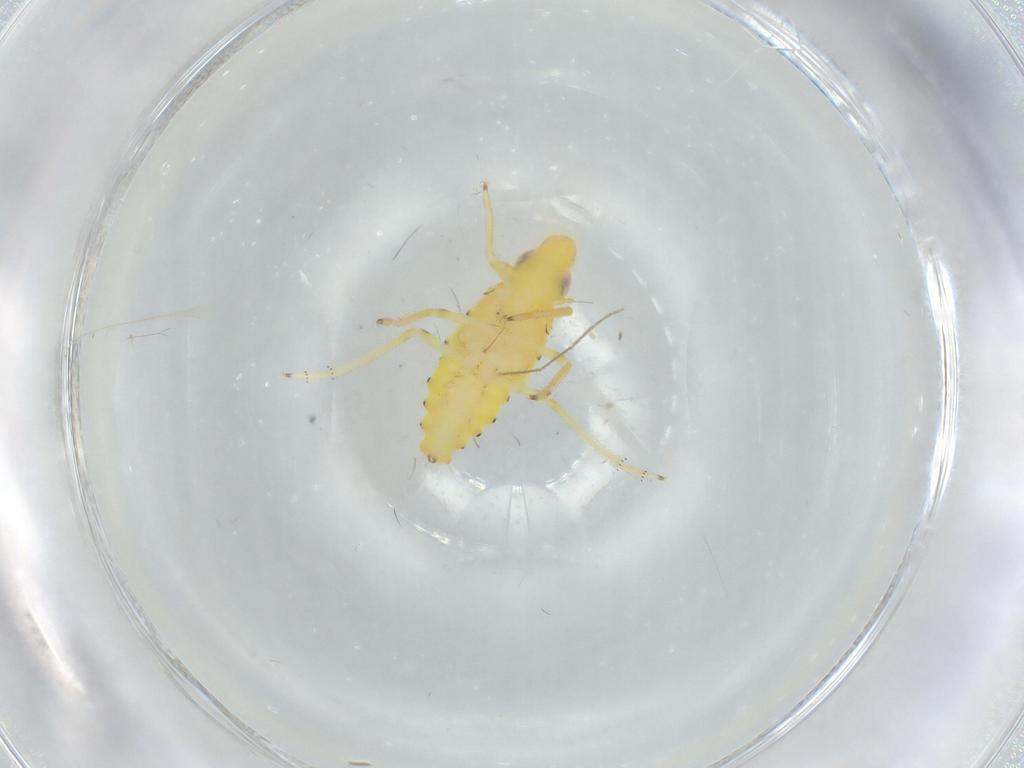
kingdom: Animalia
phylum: Arthropoda
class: Insecta
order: Hemiptera
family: Tropiduchidae
